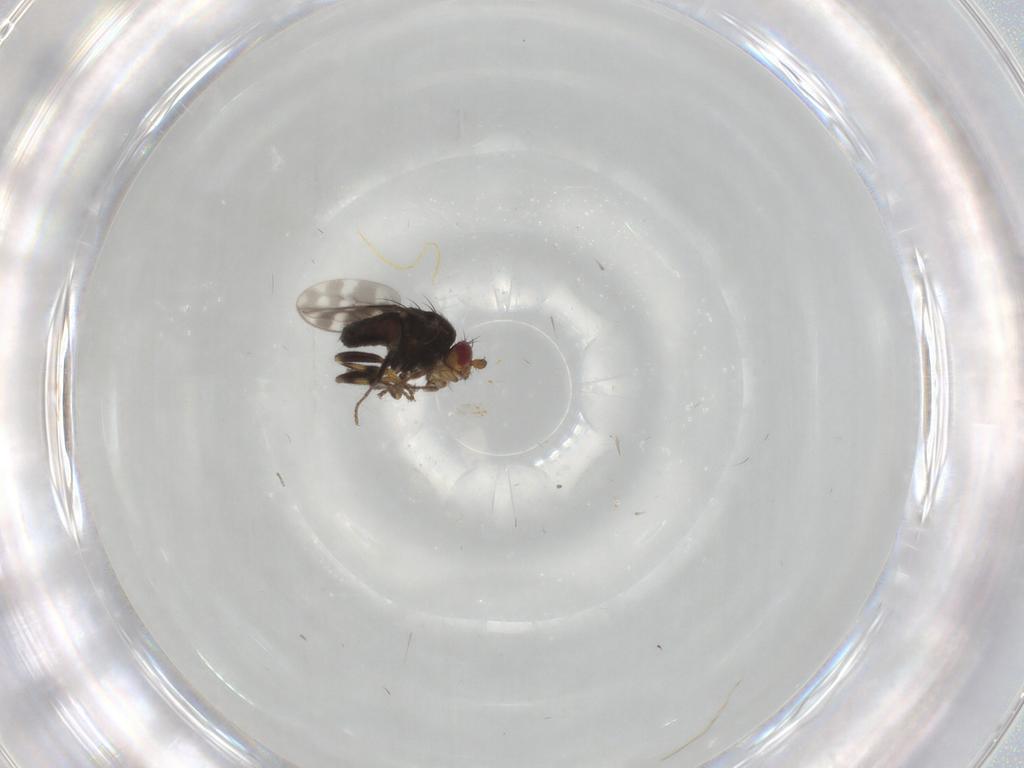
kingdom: Animalia
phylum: Arthropoda
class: Insecta
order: Diptera
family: Sphaeroceridae
